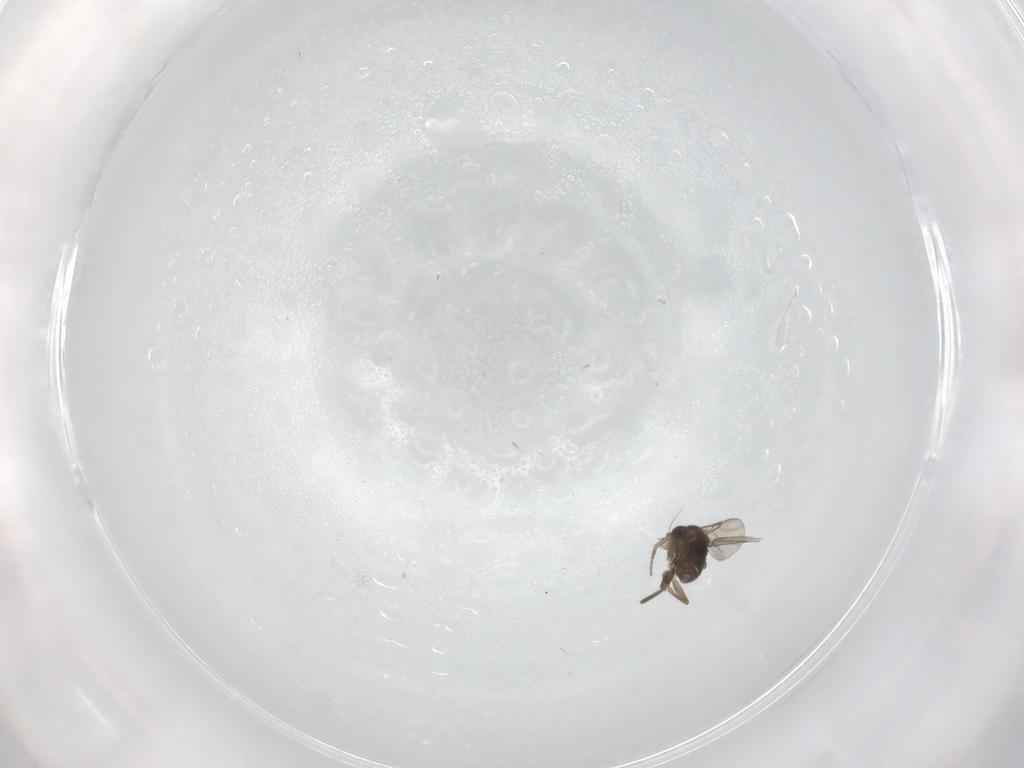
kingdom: Animalia
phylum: Arthropoda
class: Insecta
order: Diptera
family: Phoridae
